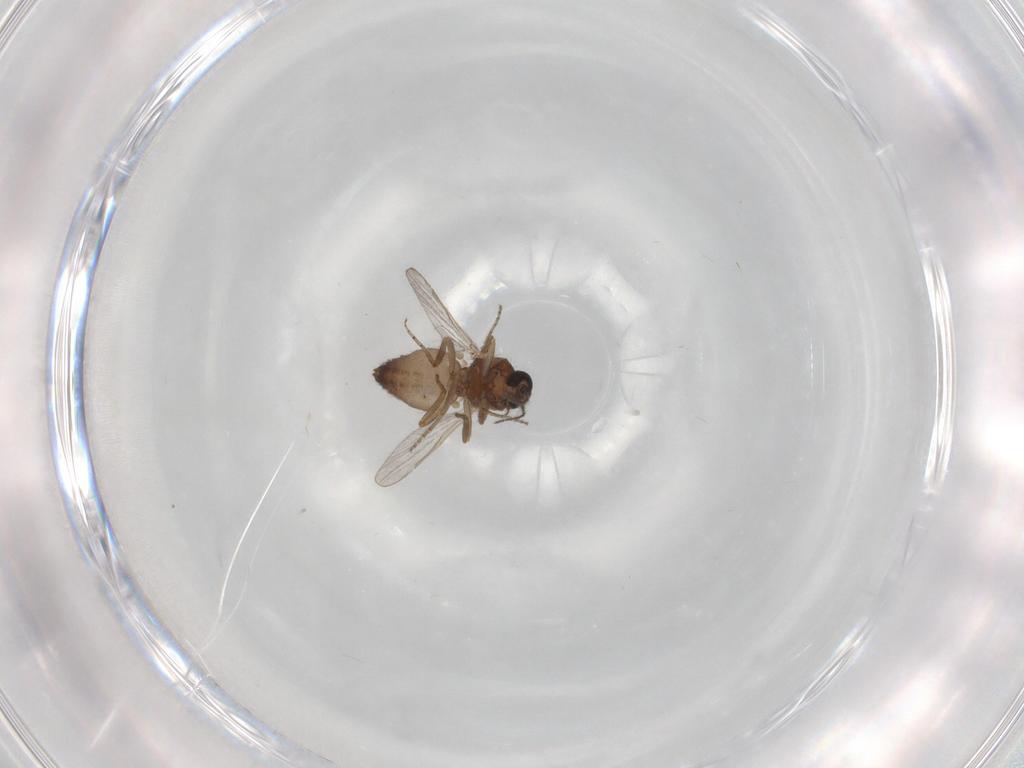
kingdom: Animalia
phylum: Arthropoda
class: Insecta
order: Diptera
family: Ceratopogonidae
